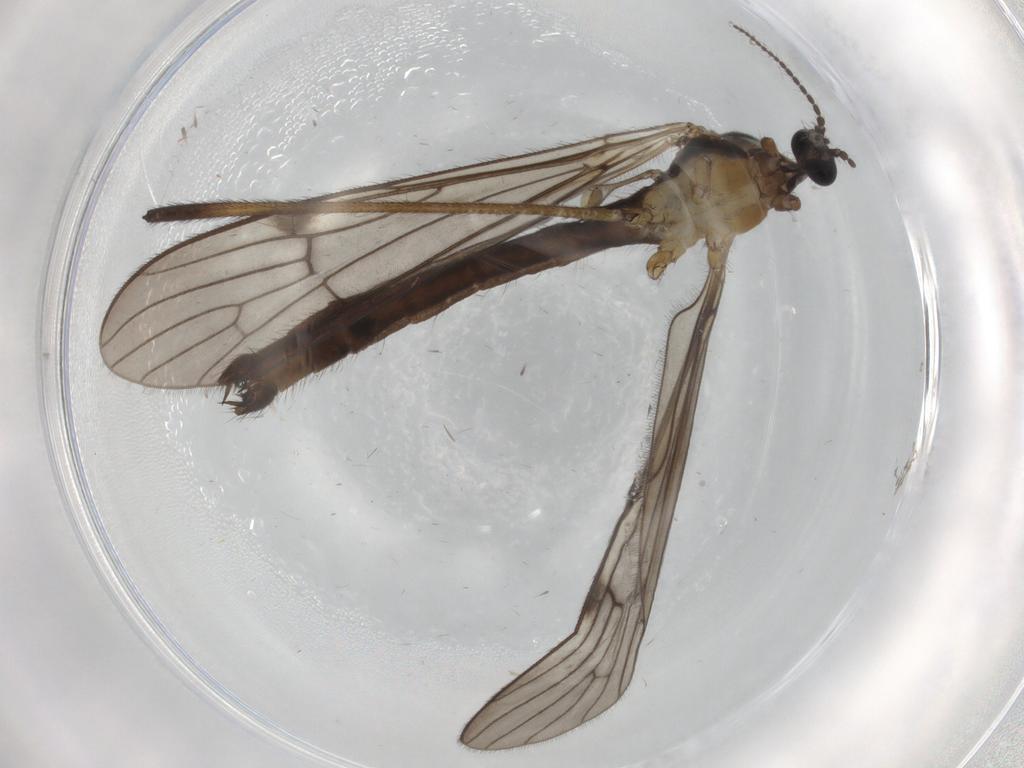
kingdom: Animalia
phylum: Arthropoda
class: Insecta
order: Diptera
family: Limoniidae
